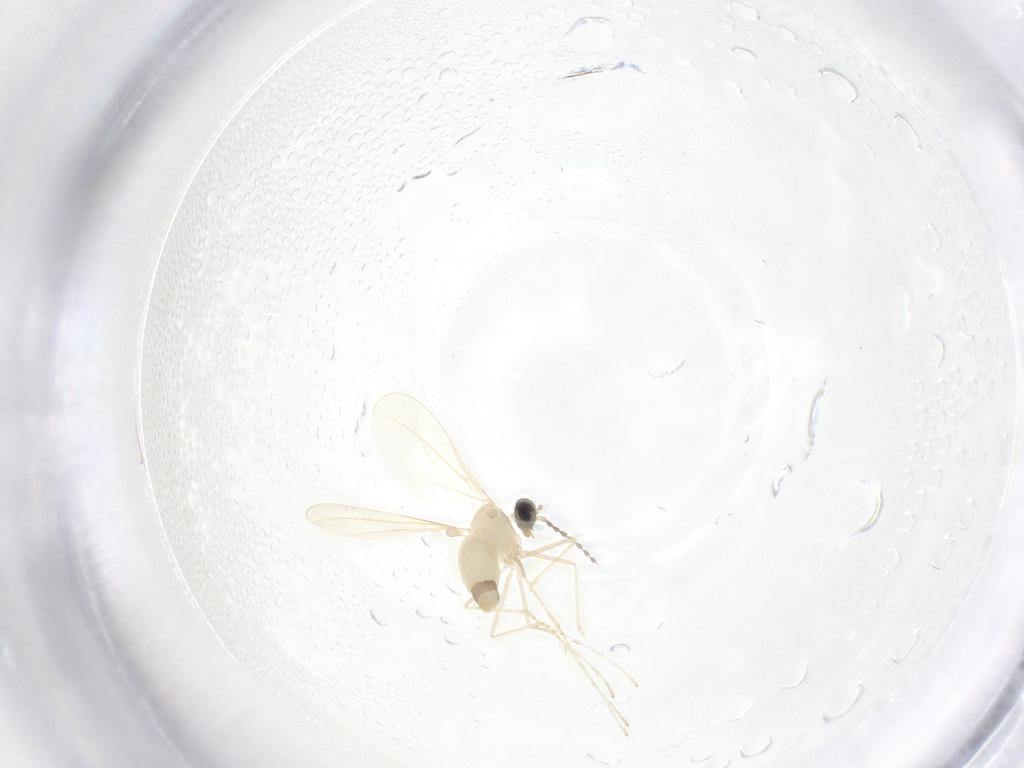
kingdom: Animalia
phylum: Arthropoda
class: Insecta
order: Diptera
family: Cecidomyiidae
